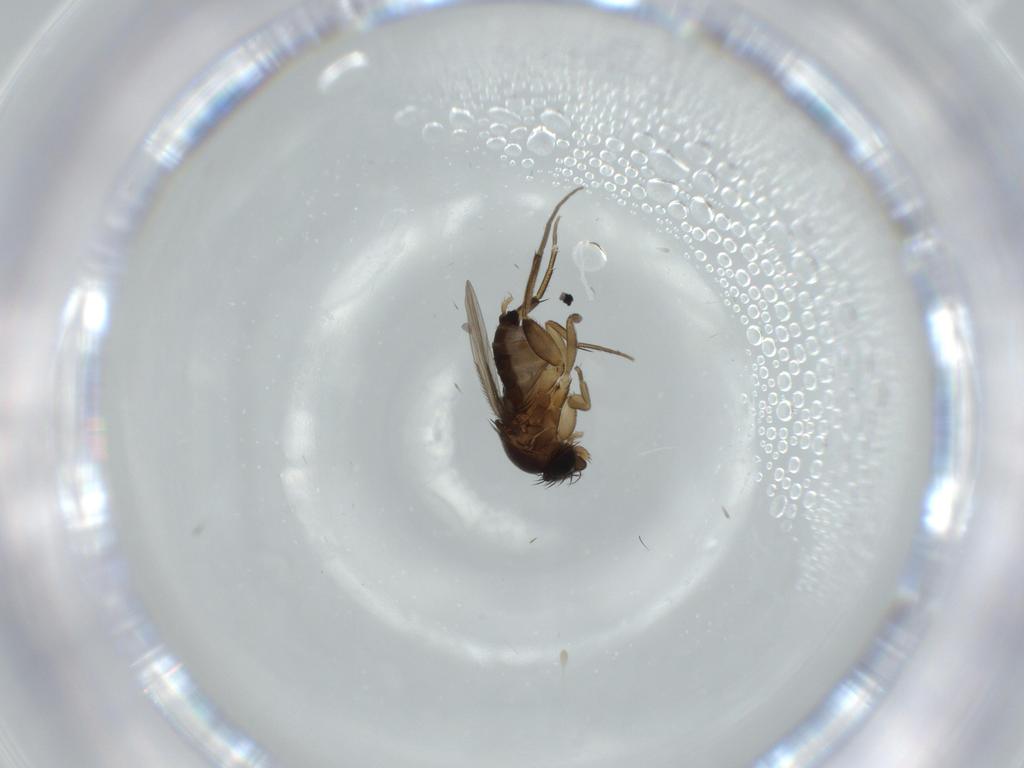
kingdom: Animalia
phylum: Arthropoda
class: Insecta
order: Diptera
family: Phoridae
